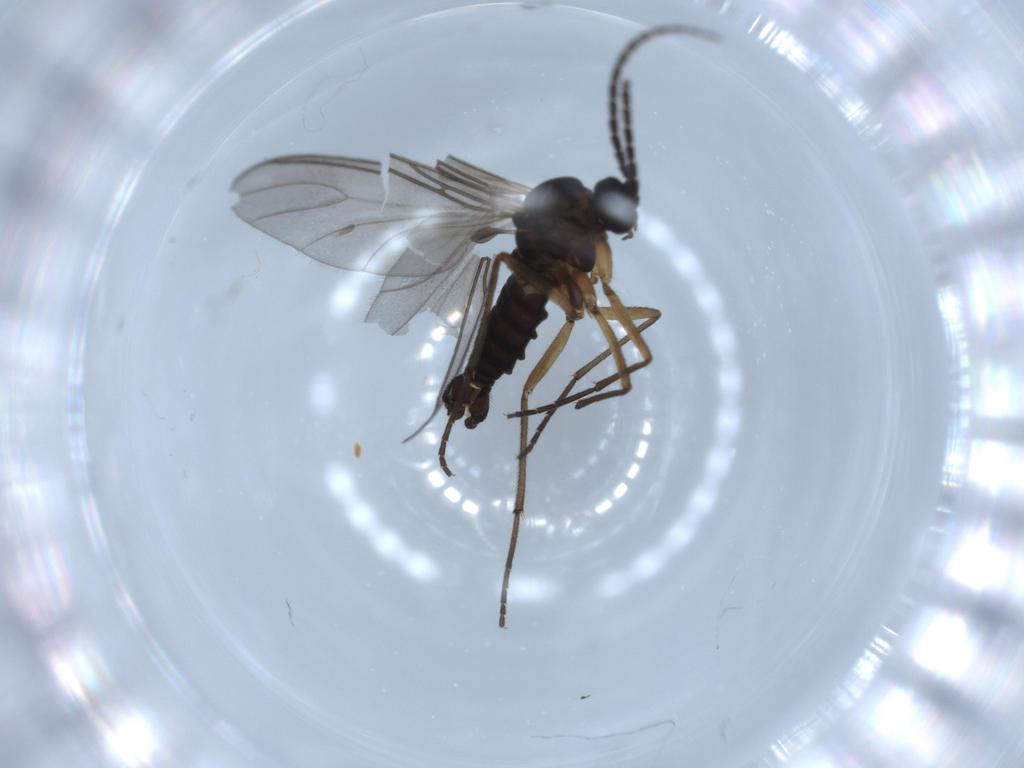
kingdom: Animalia
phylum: Arthropoda
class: Insecta
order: Diptera
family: Sciaridae
